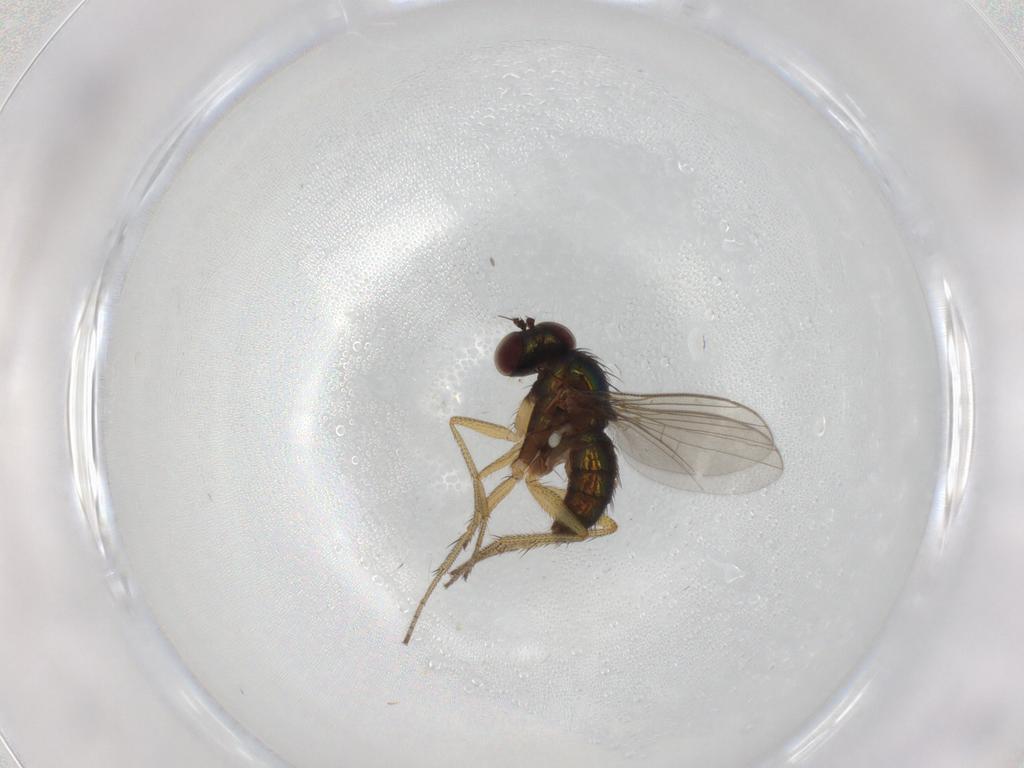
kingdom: Animalia
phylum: Arthropoda
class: Insecta
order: Diptera
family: Dolichopodidae
